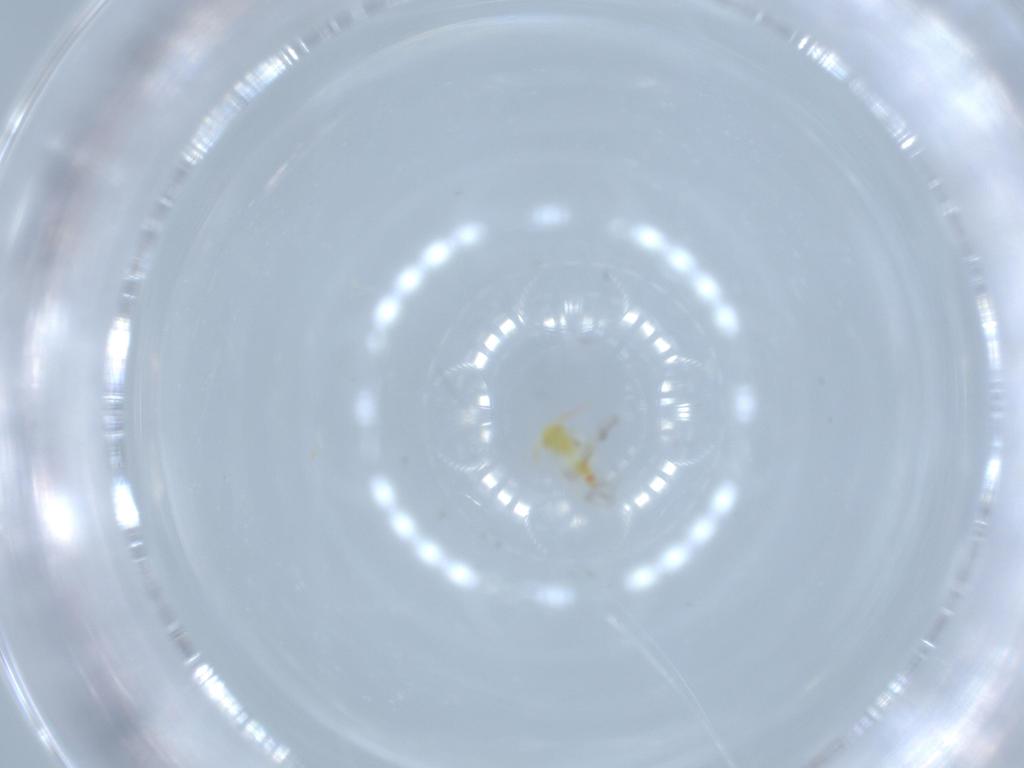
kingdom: Animalia
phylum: Arthropoda
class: Insecta
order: Hemiptera
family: Aleyrodidae
